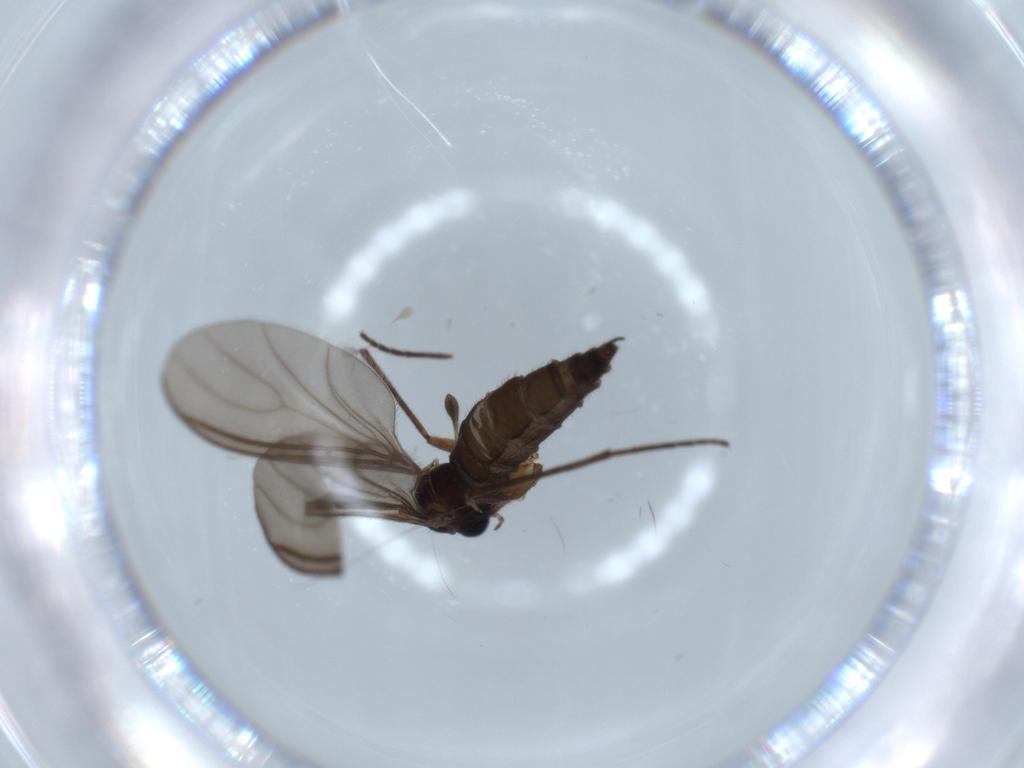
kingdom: Animalia
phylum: Arthropoda
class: Insecta
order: Diptera
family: Sciaridae
